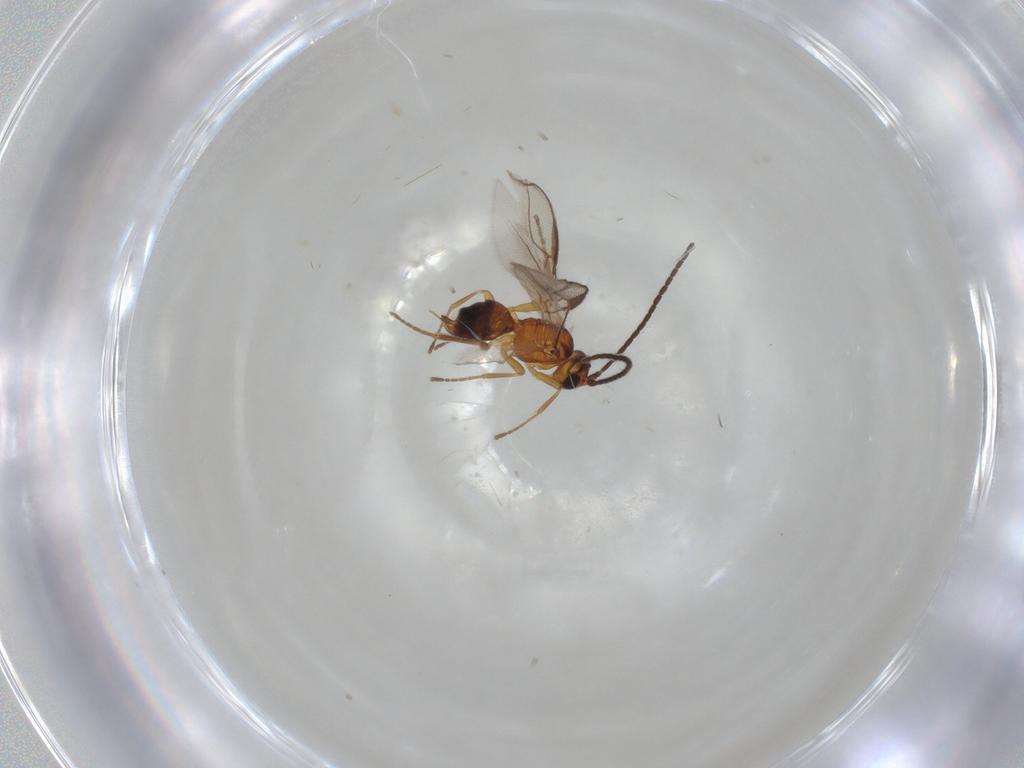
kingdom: Animalia
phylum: Arthropoda
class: Insecta
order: Hymenoptera
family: Braconidae
